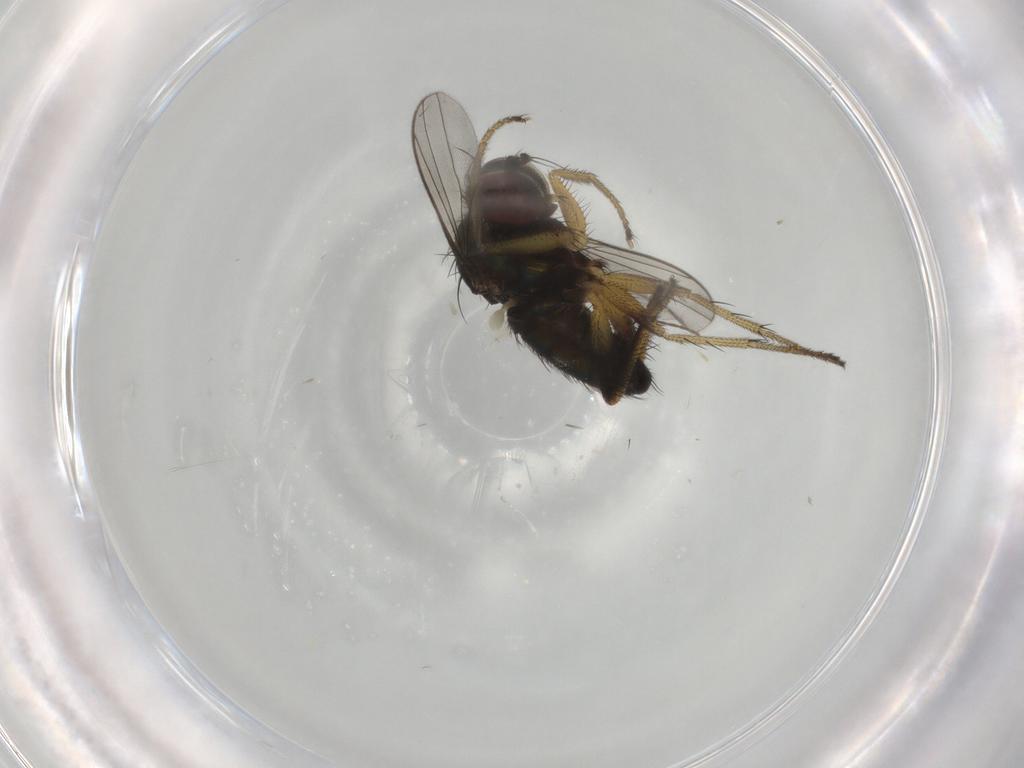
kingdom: Animalia
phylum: Arthropoda
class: Insecta
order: Diptera
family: Dolichopodidae
